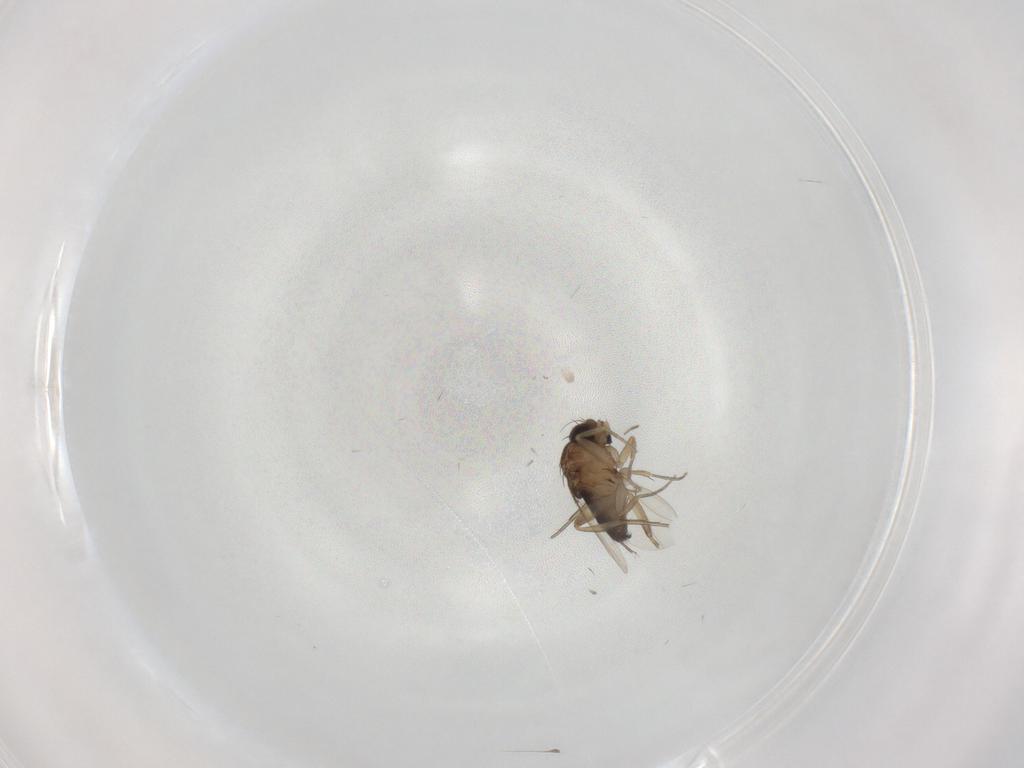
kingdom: Animalia
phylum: Arthropoda
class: Insecta
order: Diptera
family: Phoridae
